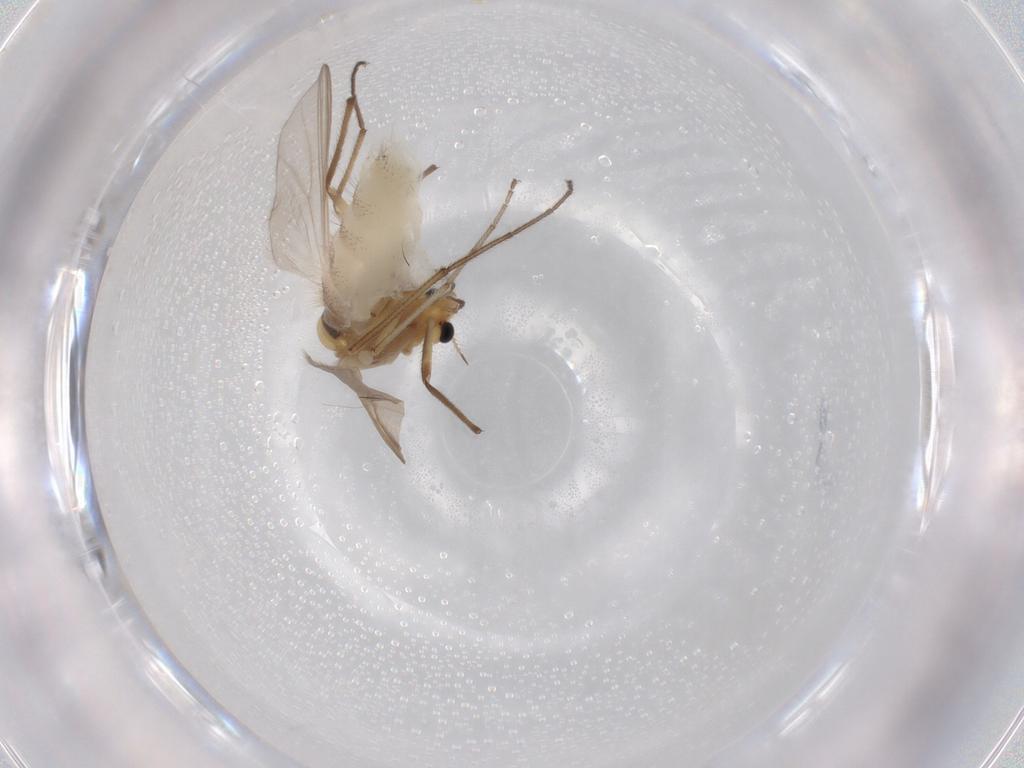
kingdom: Animalia
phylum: Arthropoda
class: Insecta
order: Diptera
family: Chironomidae
